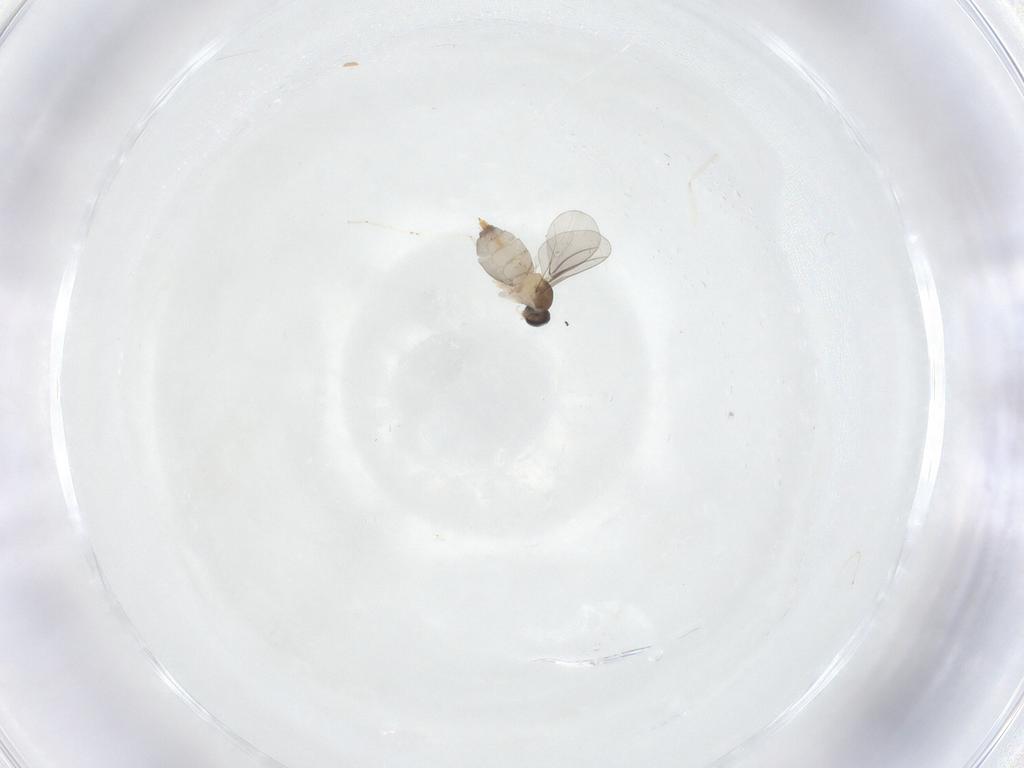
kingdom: Animalia
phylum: Arthropoda
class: Insecta
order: Diptera
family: Cecidomyiidae
